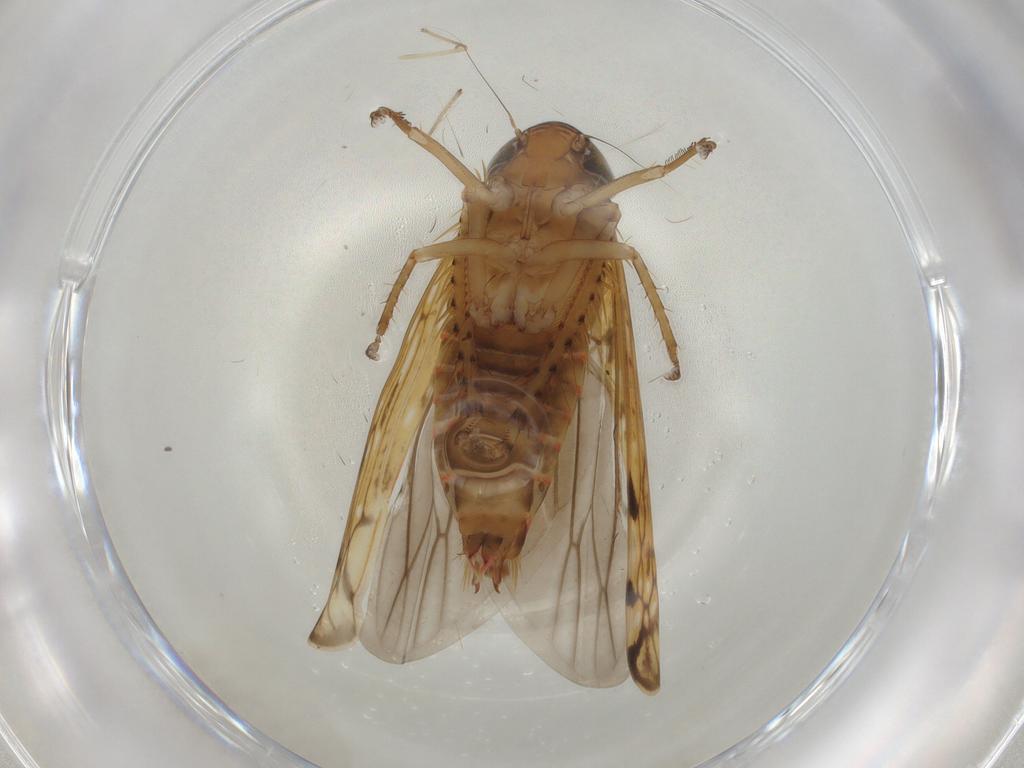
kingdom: Animalia
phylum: Arthropoda
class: Insecta
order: Hemiptera
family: Cicadellidae
